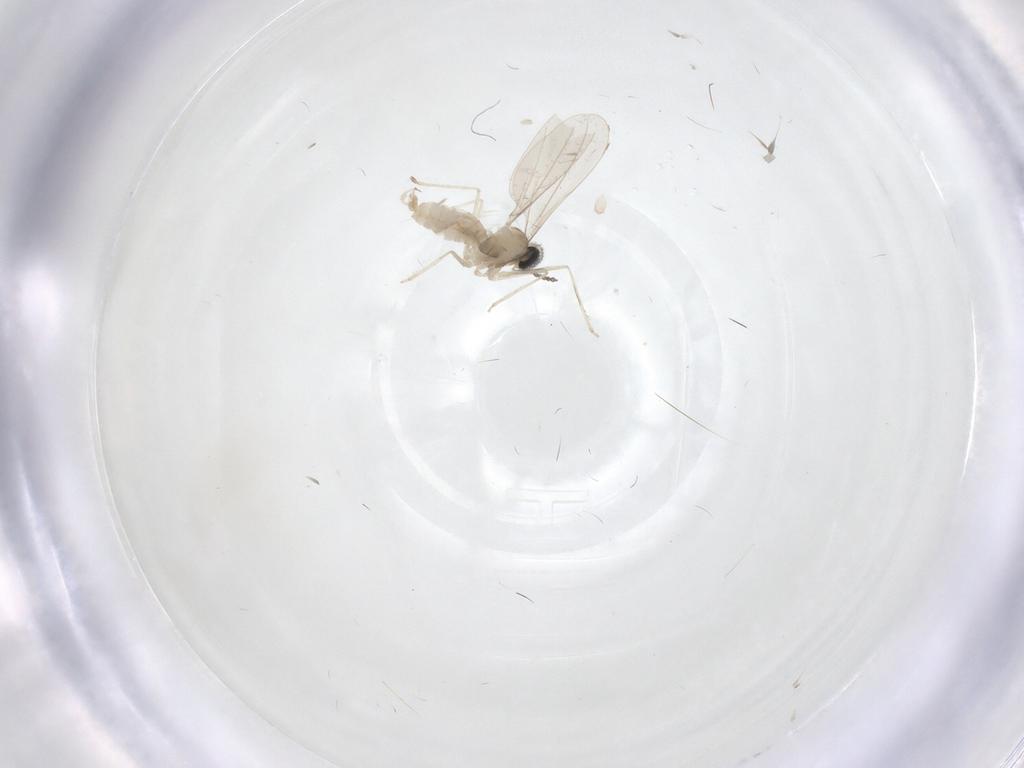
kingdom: Animalia
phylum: Arthropoda
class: Insecta
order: Diptera
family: Cecidomyiidae
